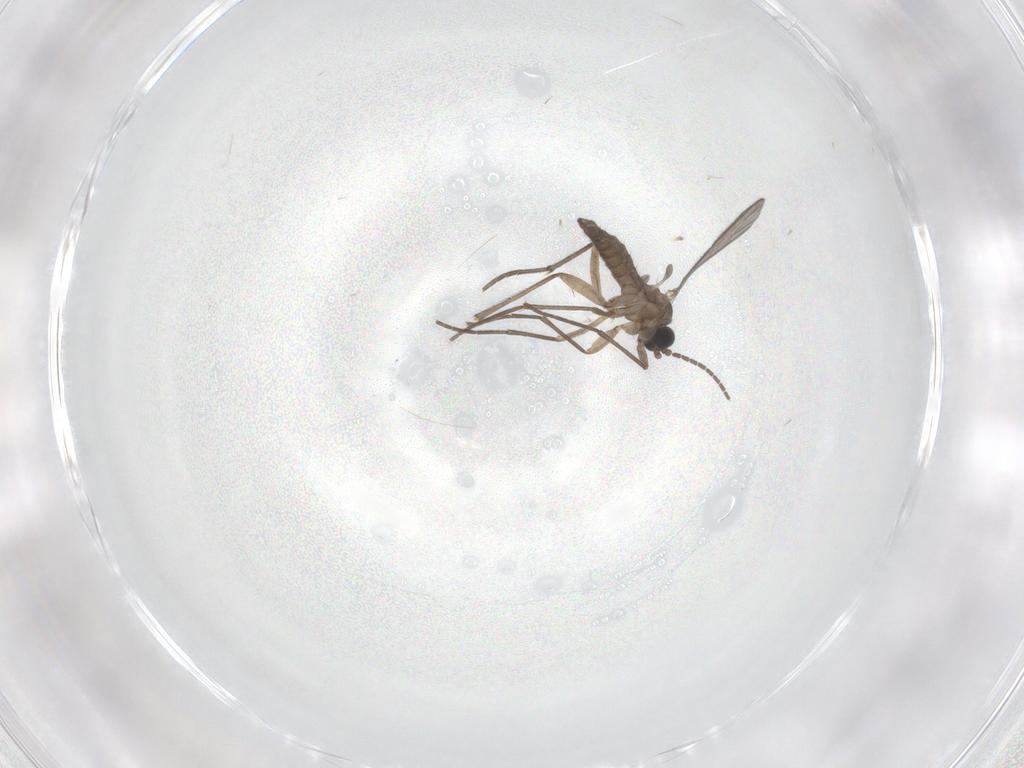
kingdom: Animalia
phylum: Arthropoda
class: Insecta
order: Diptera
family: Sciaridae
